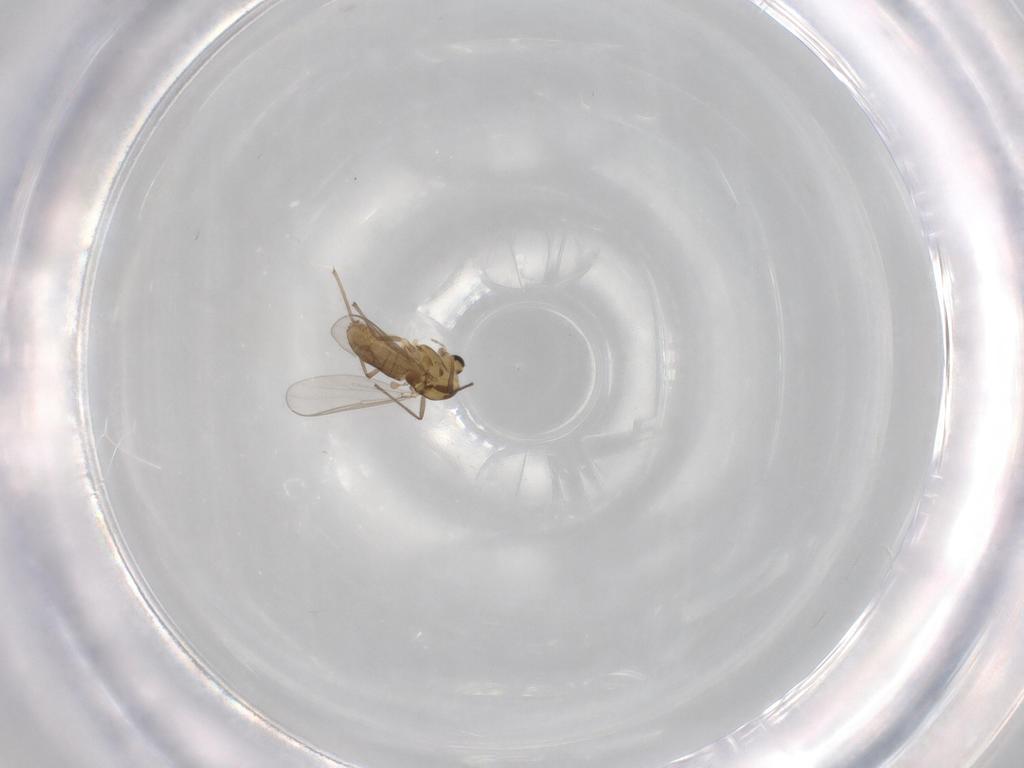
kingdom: Animalia
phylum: Arthropoda
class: Insecta
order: Diptera
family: Chironomidae
